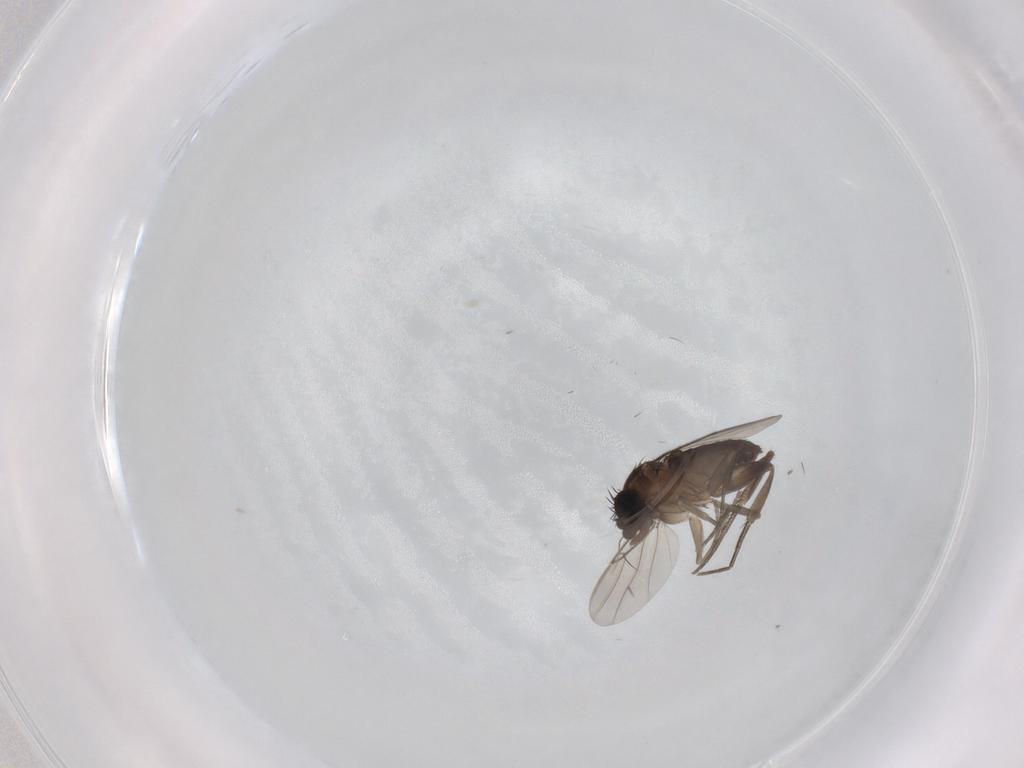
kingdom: Animalia
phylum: Arthropoda
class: Insecta
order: Diptera
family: Phoridae
